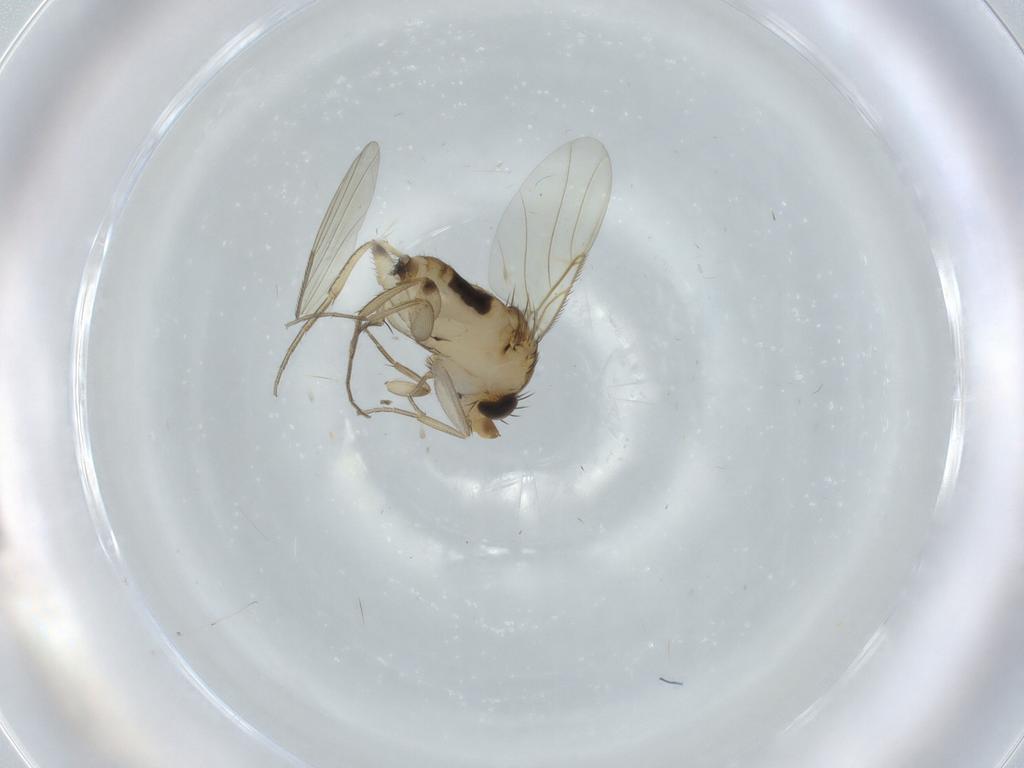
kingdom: Animalia
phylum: Arthropoda
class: Insecta
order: Diptera
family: Phoridae
